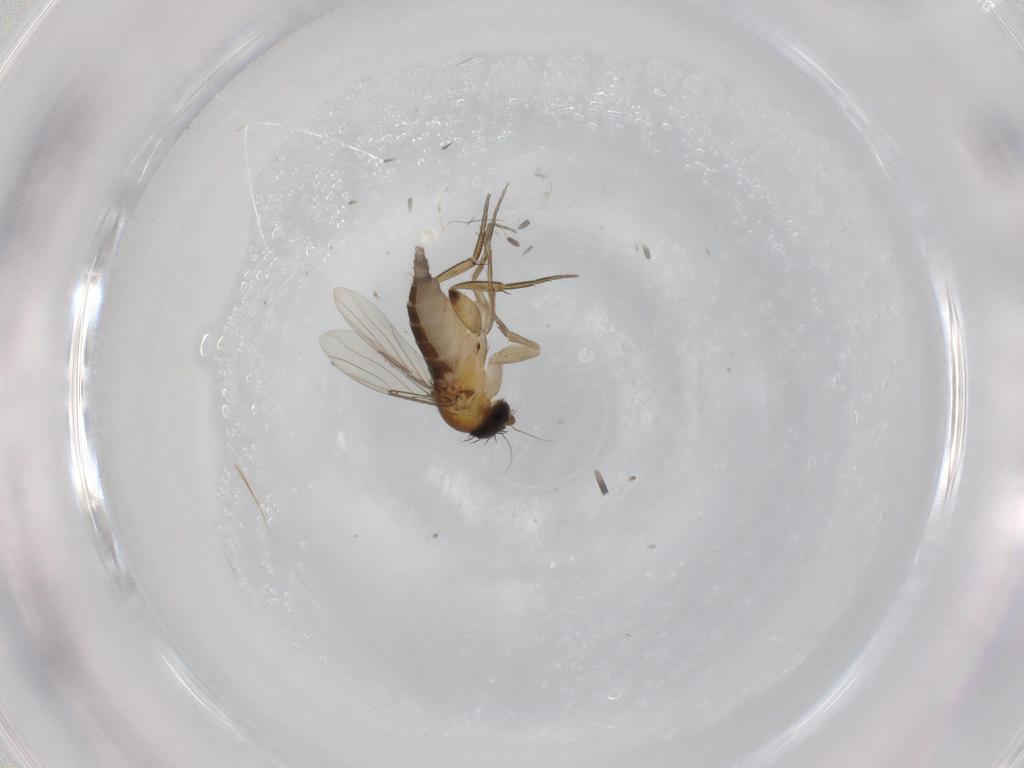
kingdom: Animalia
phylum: Arthropoda
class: Insecta
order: Diptera
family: Phoridae
